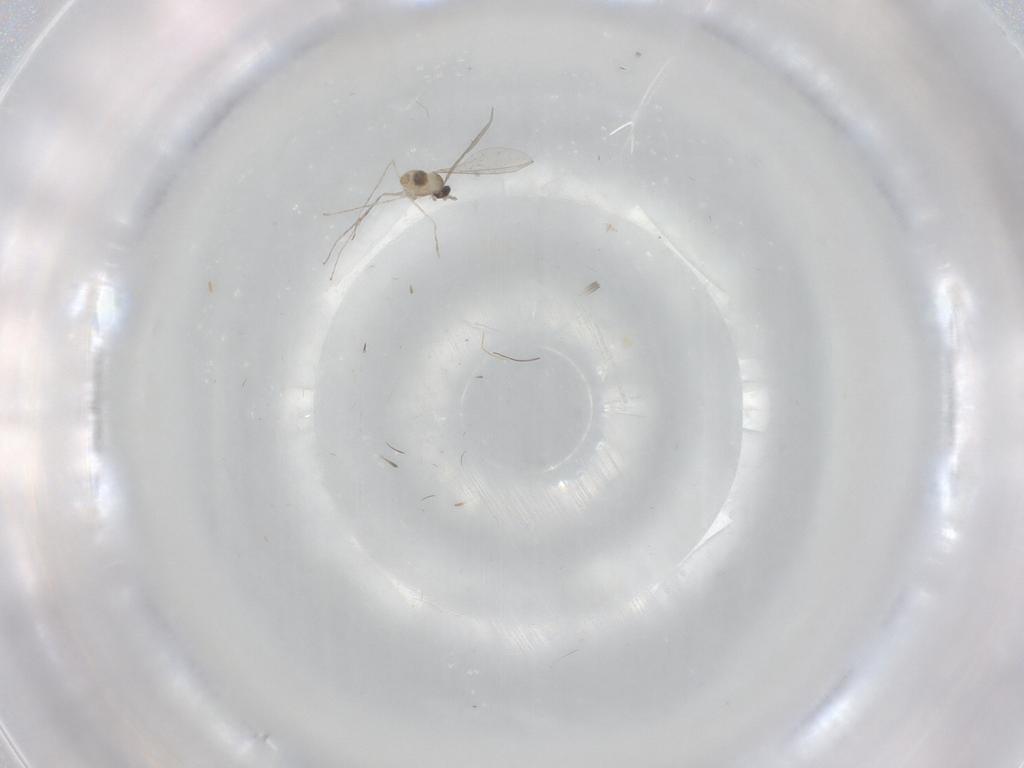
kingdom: Animalia
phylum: Arthropoda
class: Insecta
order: Diptera
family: Cecidomyiidae
